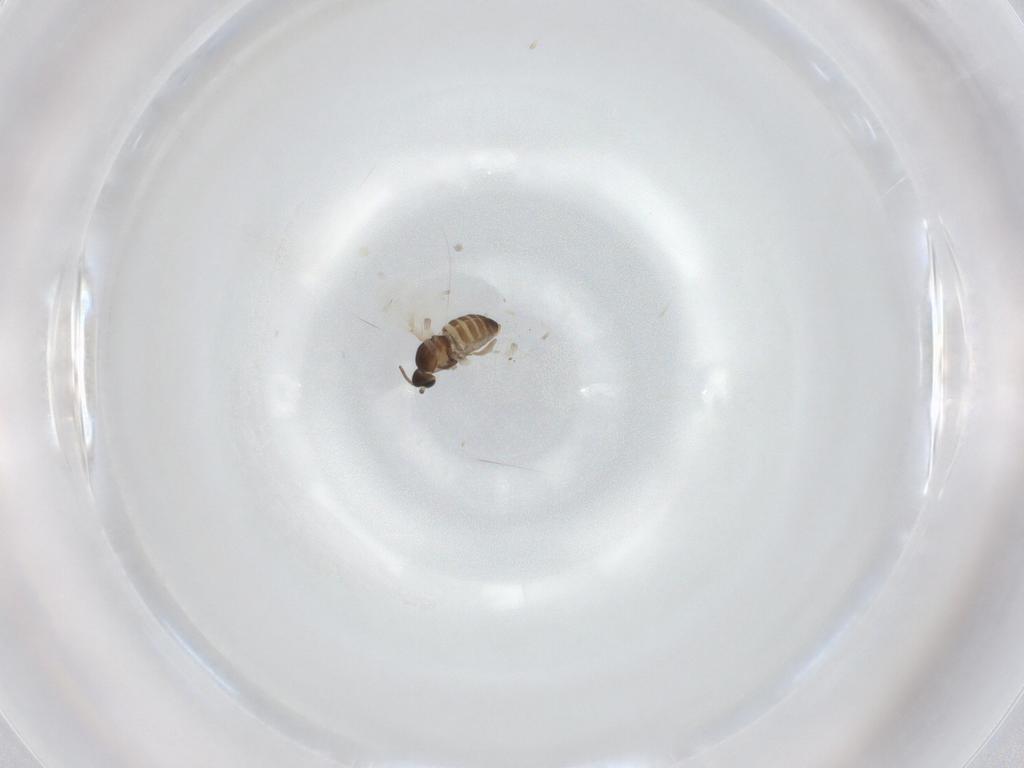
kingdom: Animalia
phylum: Arthropoda
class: Insecta
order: Diptera
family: Cecidomyiidae
